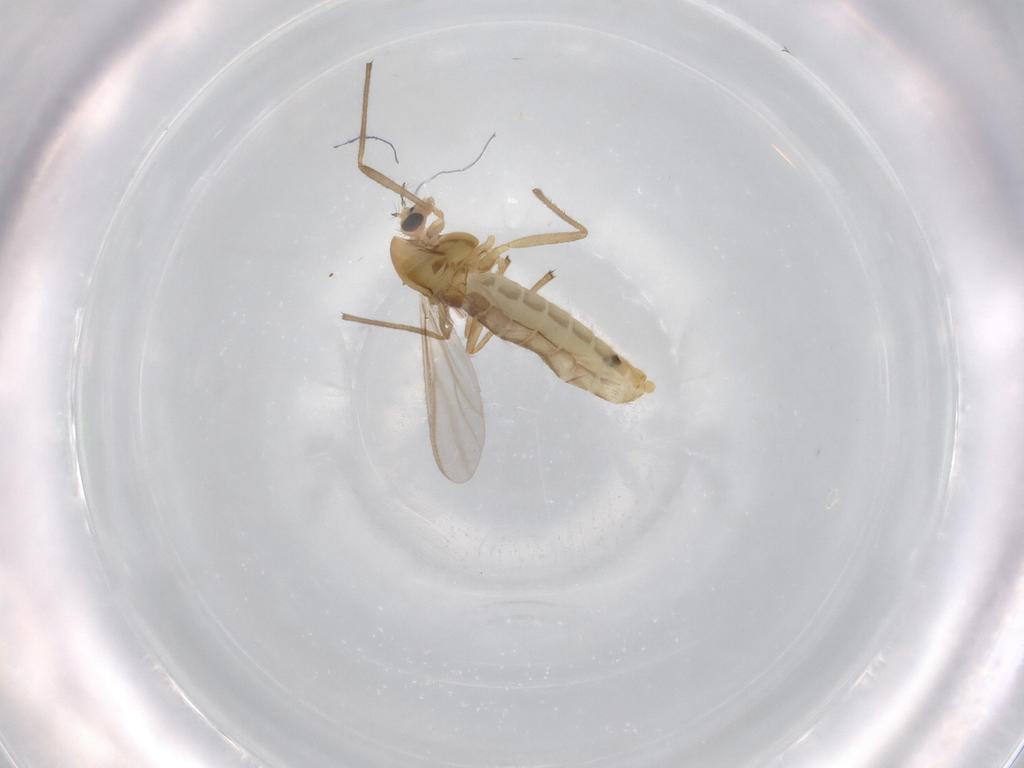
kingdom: Animalia
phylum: Arthropoda
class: Insecta
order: Diptera
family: Chironomidae
